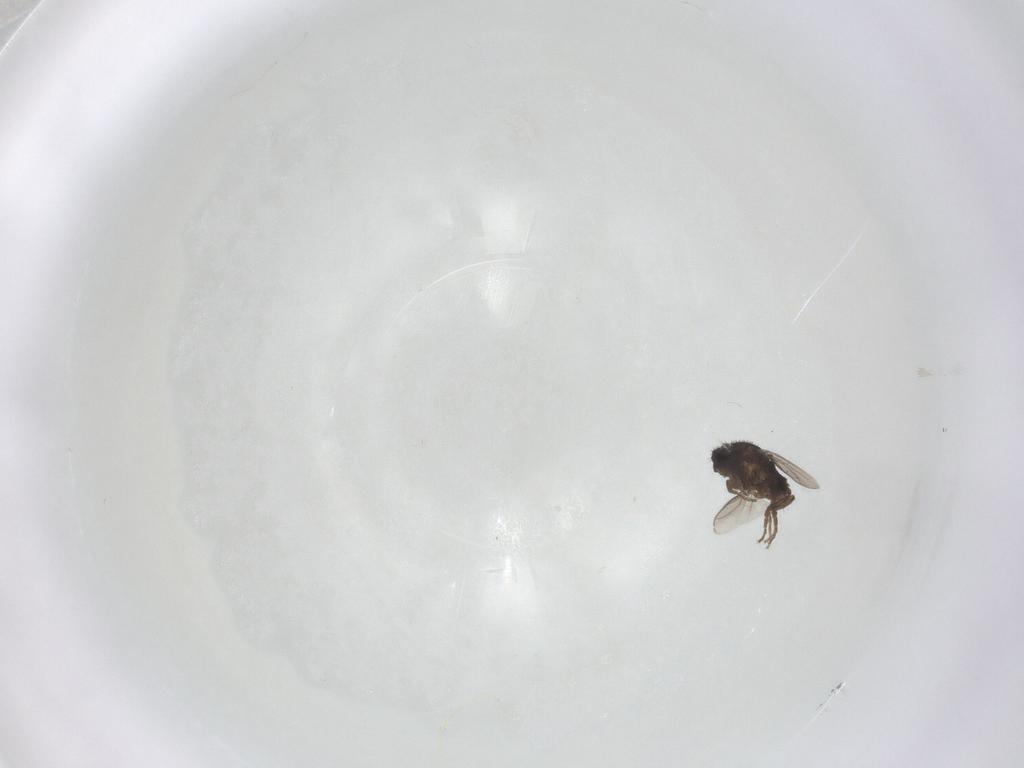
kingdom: Animalia
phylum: Arthropoda
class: Insecta
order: Diptera
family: Cecidomyiidae
